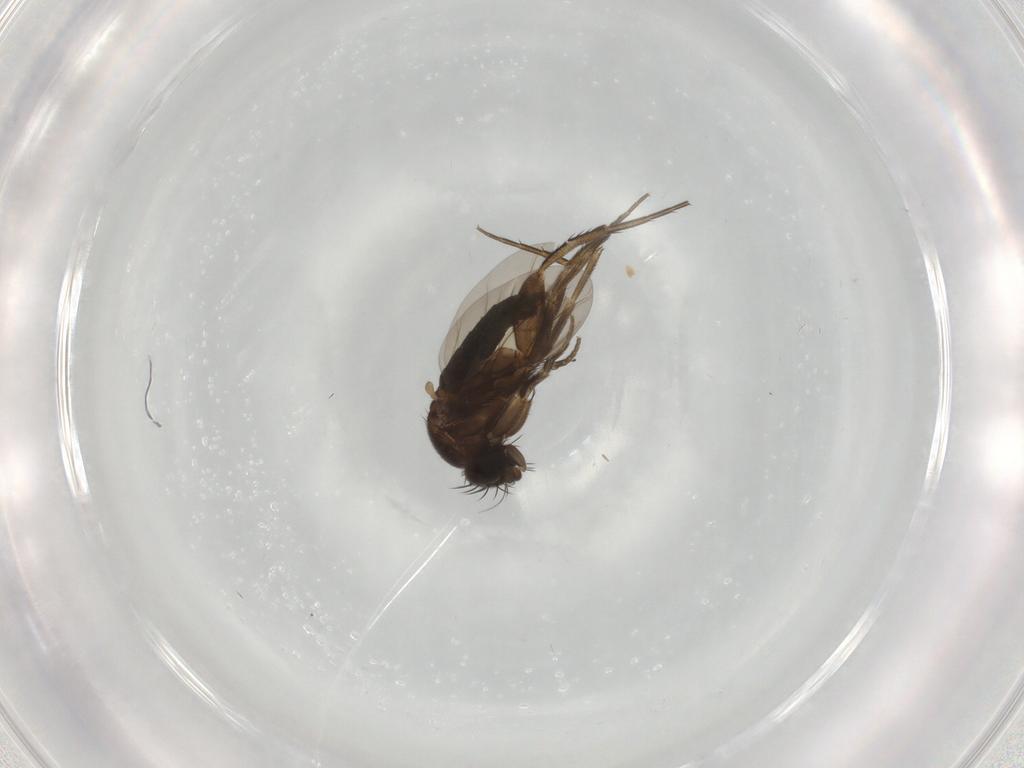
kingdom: Animalia
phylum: Arthropoda
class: Insecta
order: Diptera
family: Phoridae
